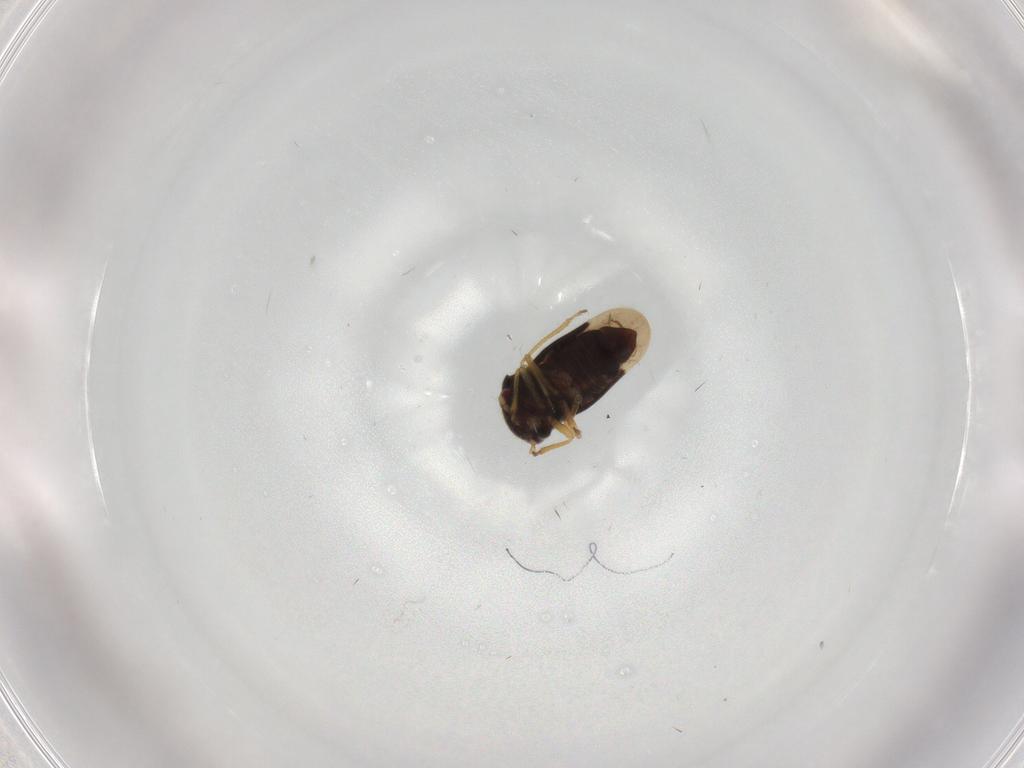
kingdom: Animalia
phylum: Arthropoda
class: Insecta
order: Hemiptera
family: Schizopteridae
